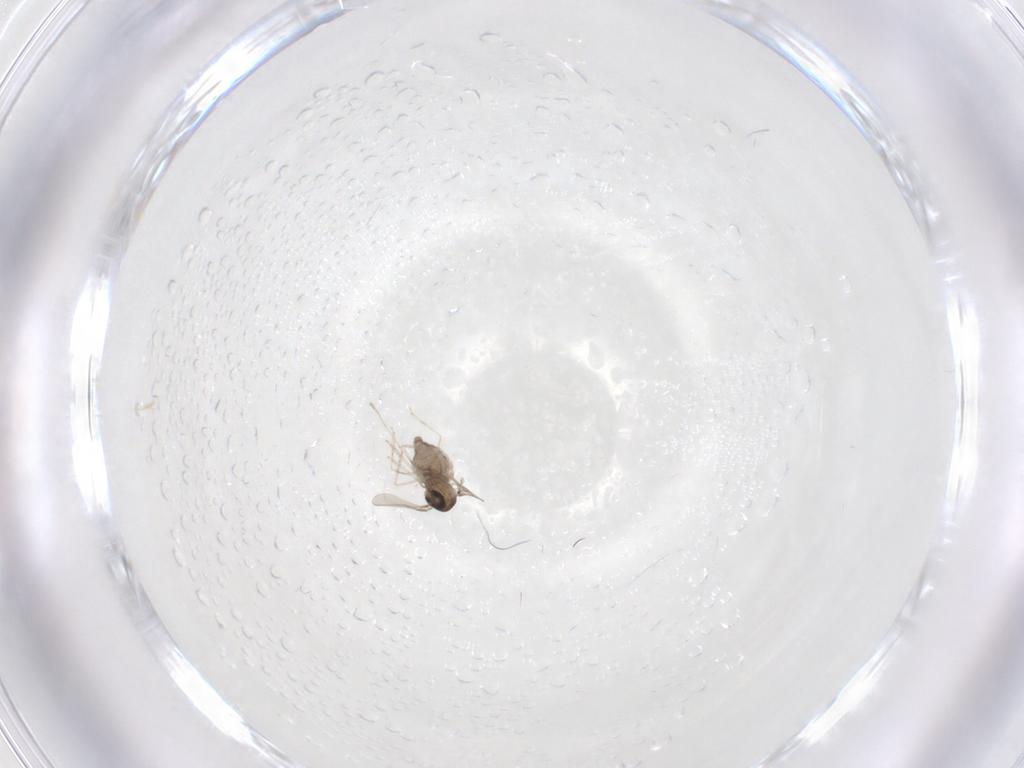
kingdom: Animalia
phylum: Arthropoda
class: Insecta
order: Diptera
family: Cecidomyiidae
